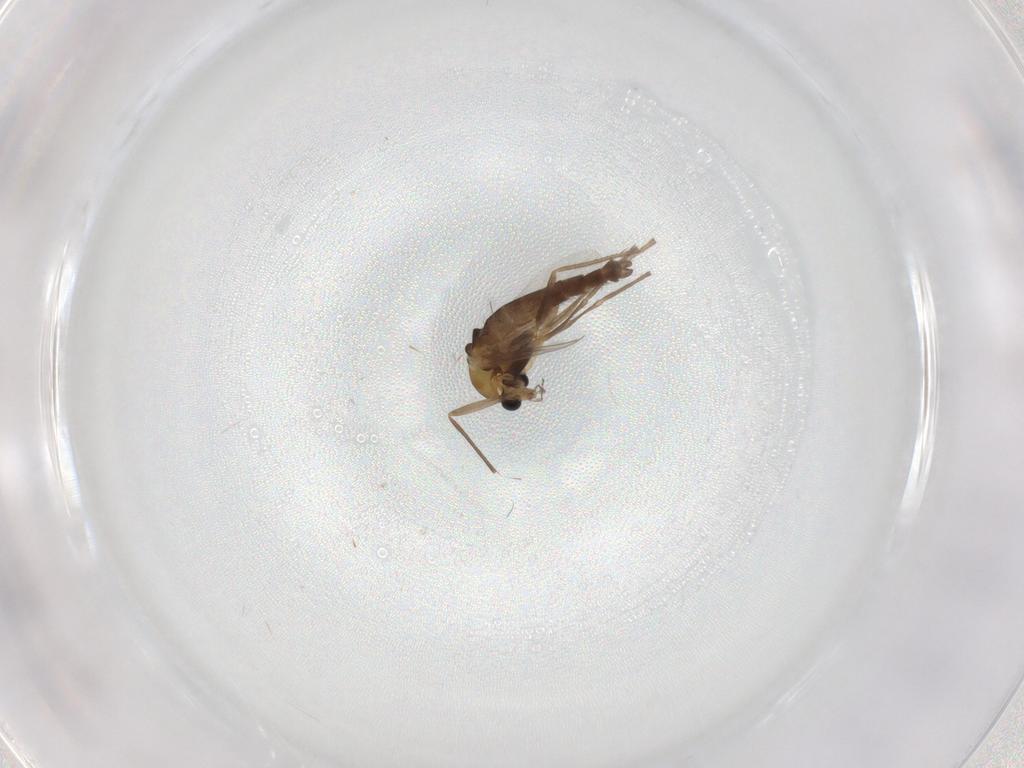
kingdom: Animalia
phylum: Arthropoda
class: Insecta
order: Diptera
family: Chironomidae
